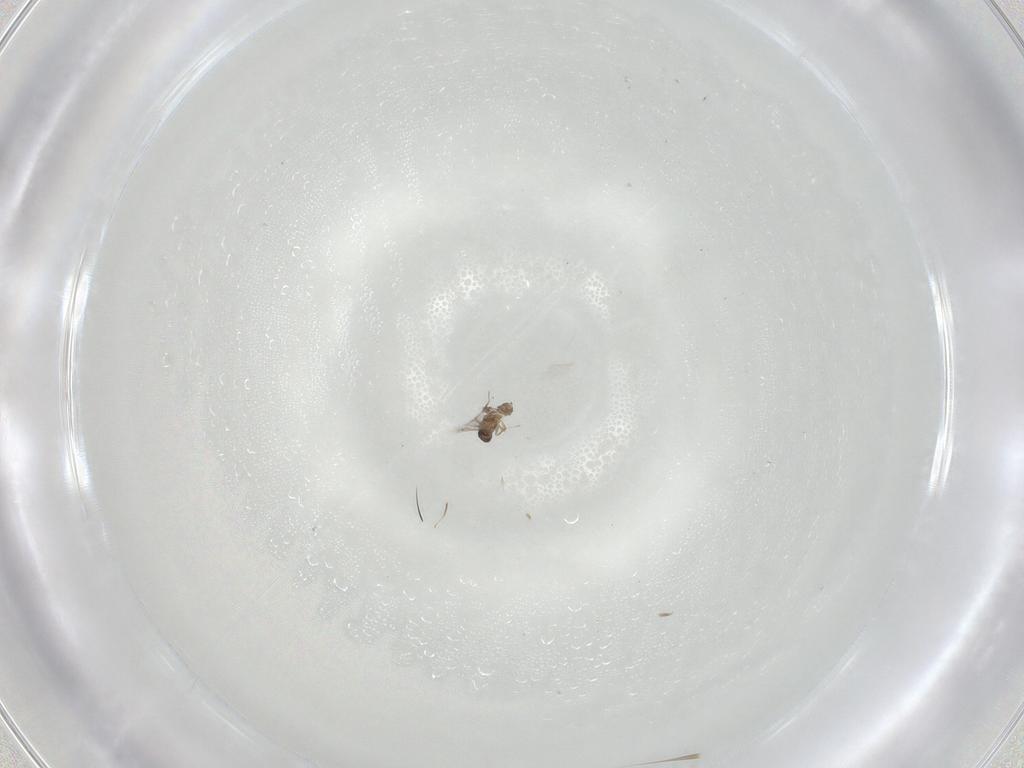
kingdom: Animalia
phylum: Arthropoda
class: Insecta
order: Hymenoptera
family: Mymaridae
